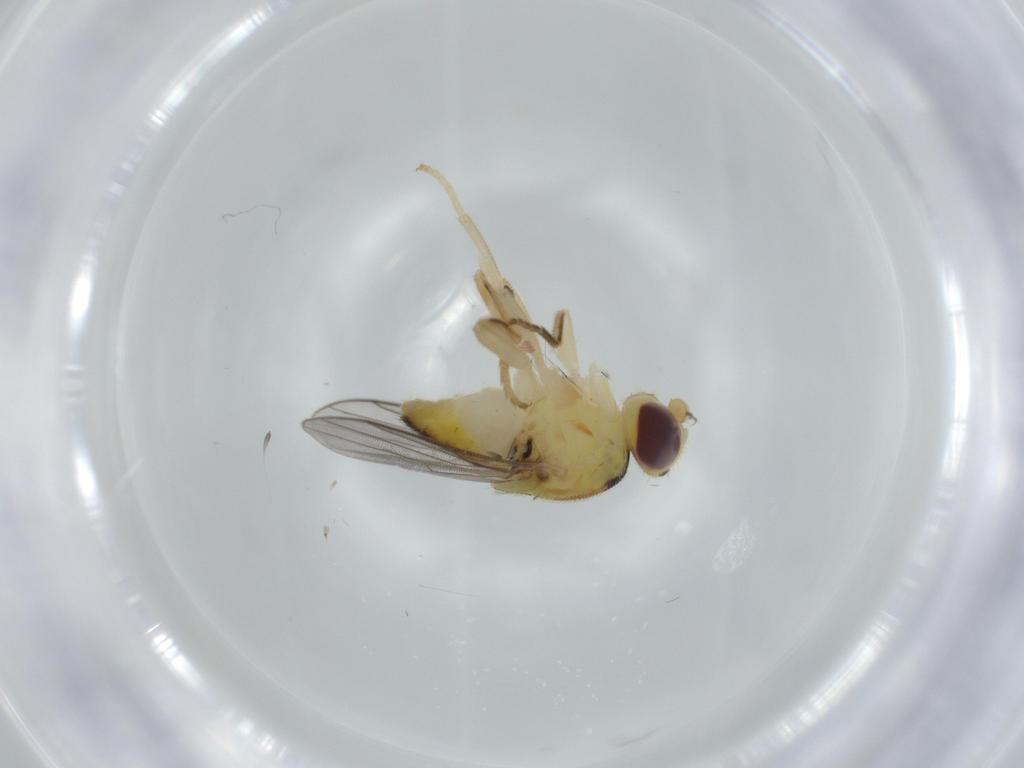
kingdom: Animalia
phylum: Arthropoda
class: Insecta
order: Diptera
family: Chloropidae
